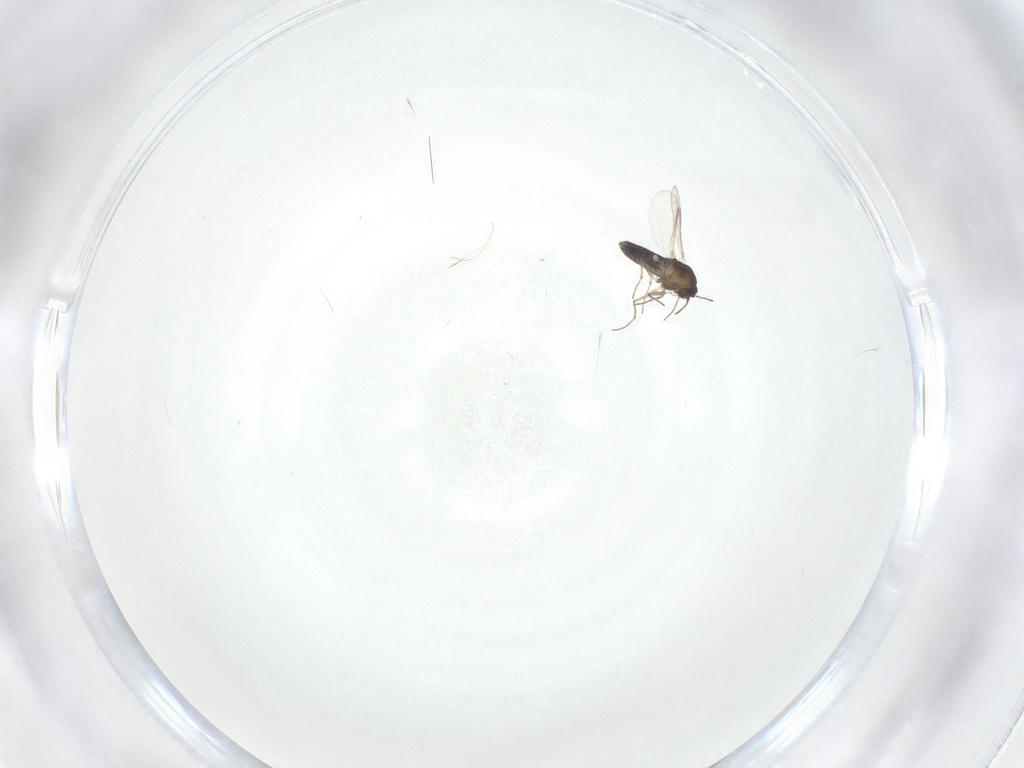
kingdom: Animalia
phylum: Arthropoda
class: Insecta
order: Diptera
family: Chironomidae
